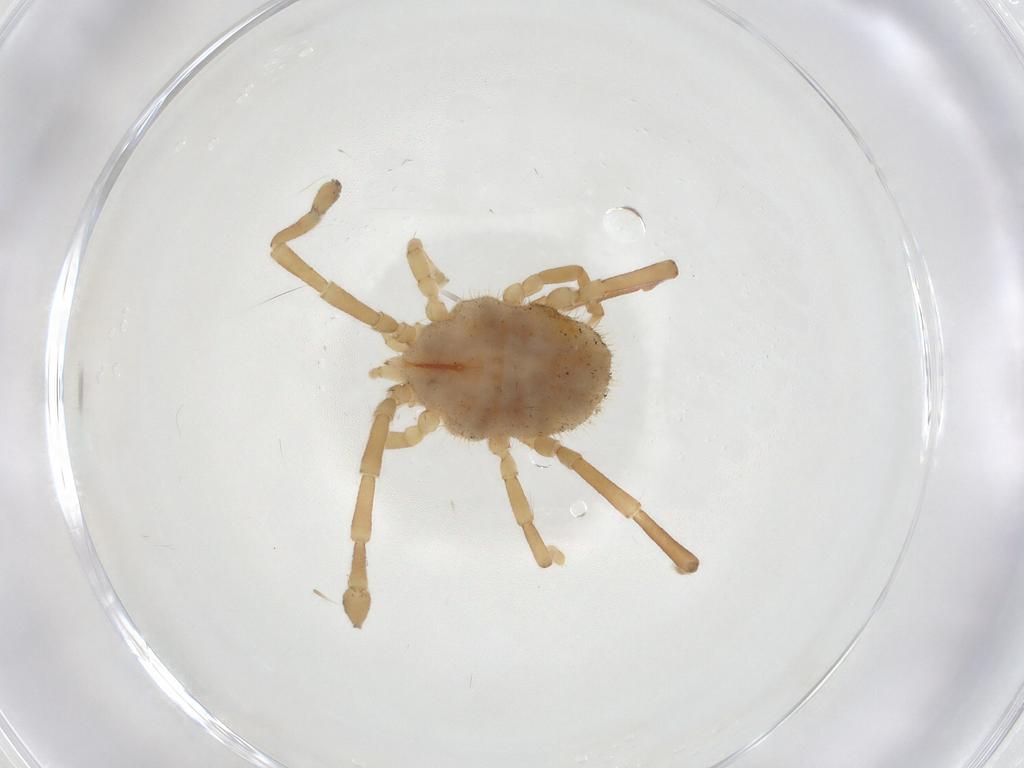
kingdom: Animalia
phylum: Arthropoda
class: Arachnida
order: Trombidiformes
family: Erythraeidae
